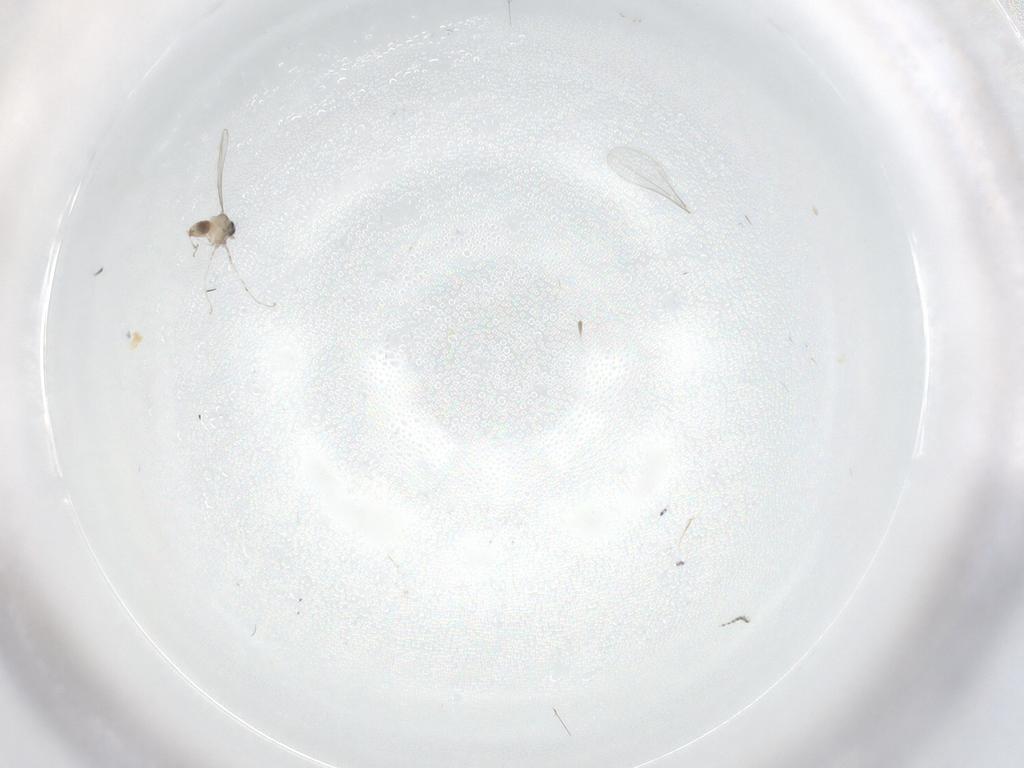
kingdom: Animalia
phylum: Arthropoda
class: Insecta
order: Diptera
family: Cecidomyiidae
